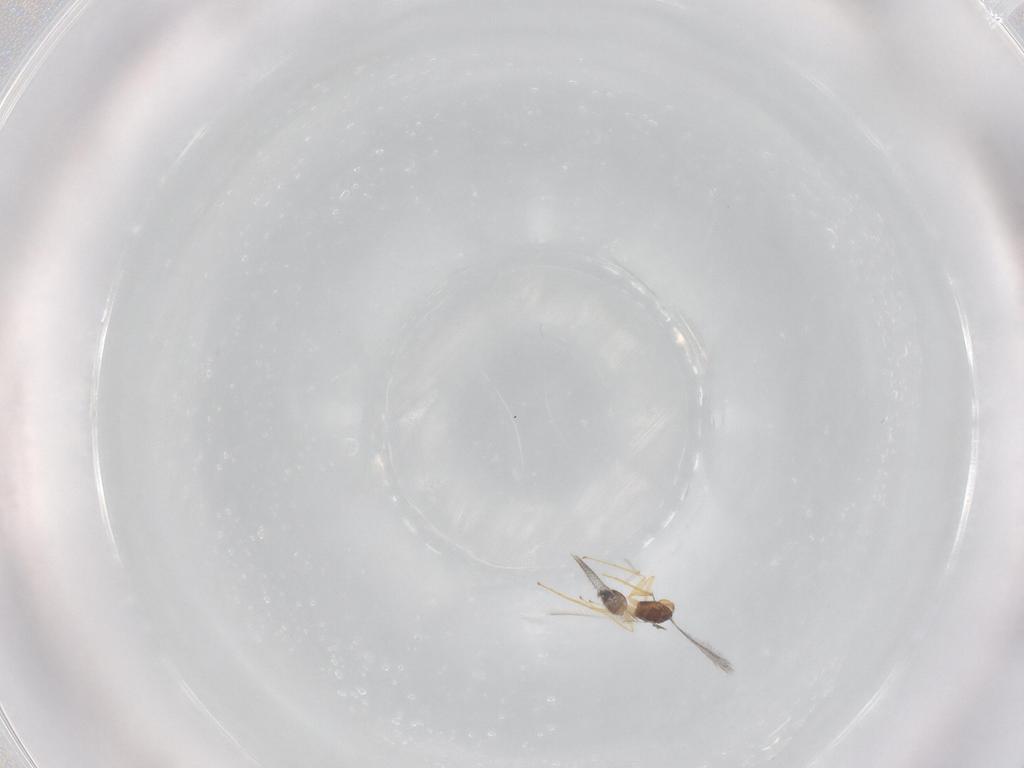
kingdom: Animalia
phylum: Arthropoda
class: Insecta
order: Hymenoptera
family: Mymaridae
